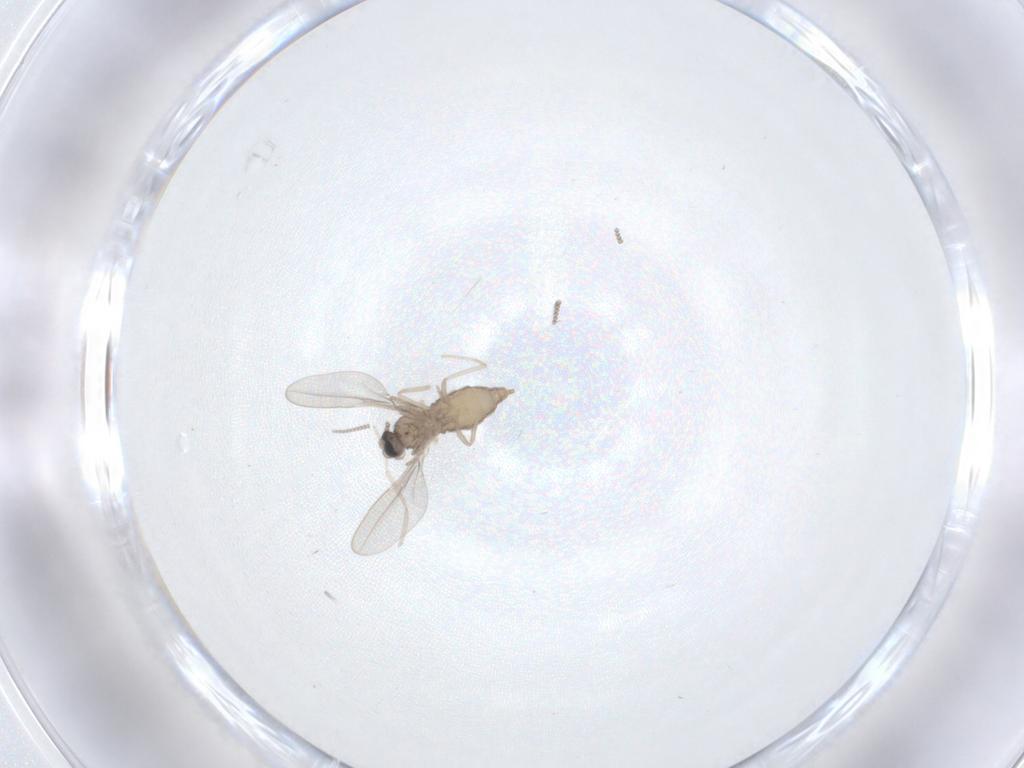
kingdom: Animalia
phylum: Arthropoda
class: Insecta
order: Diptera
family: Cecidomyiidae
